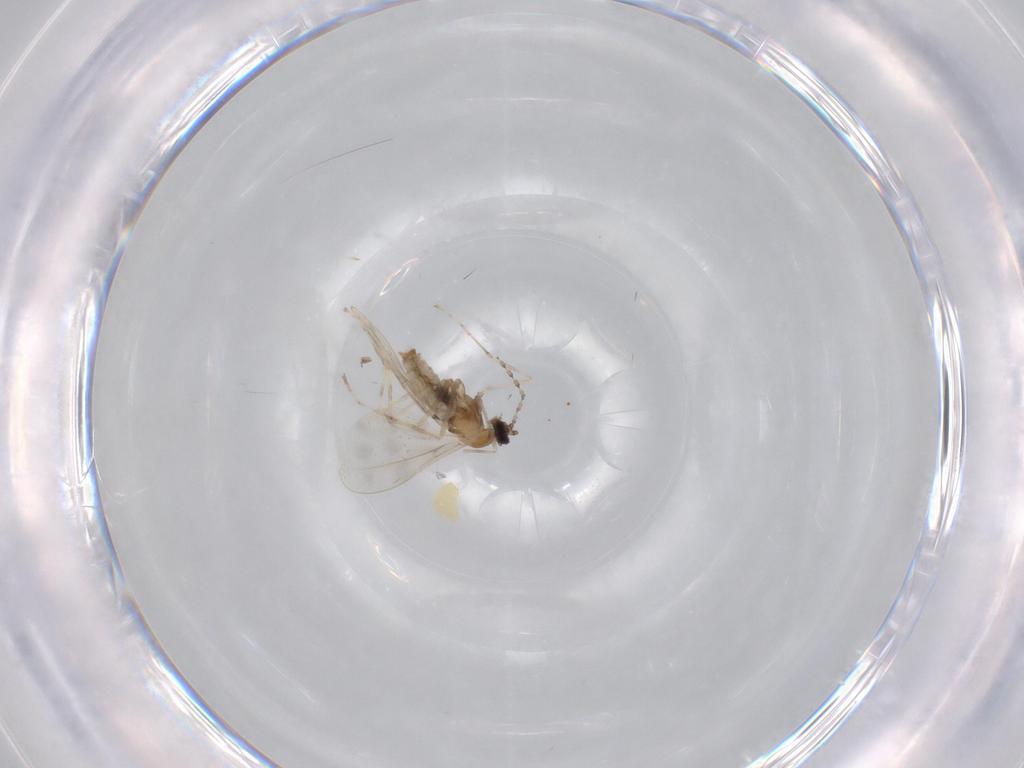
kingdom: Animalia
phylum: Arthropoda
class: Insecta
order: Diptera
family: Cecidomyiidae
